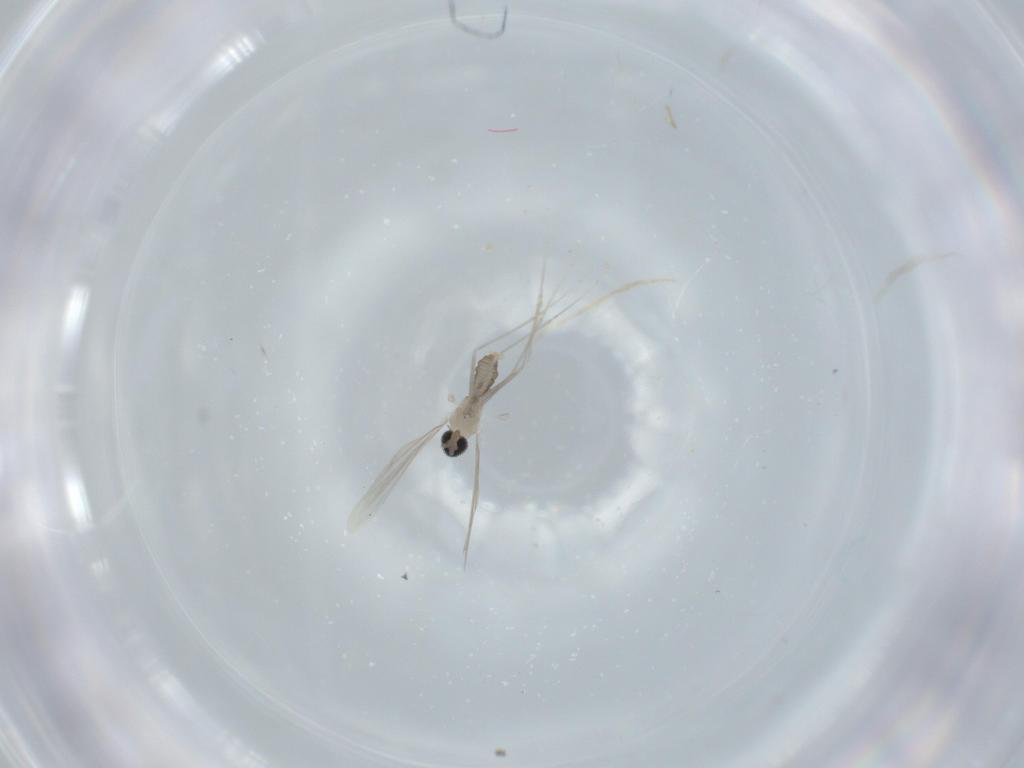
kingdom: Animalia
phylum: Arthropoda
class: Insecta
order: Diptera
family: Cecidomyiidae
